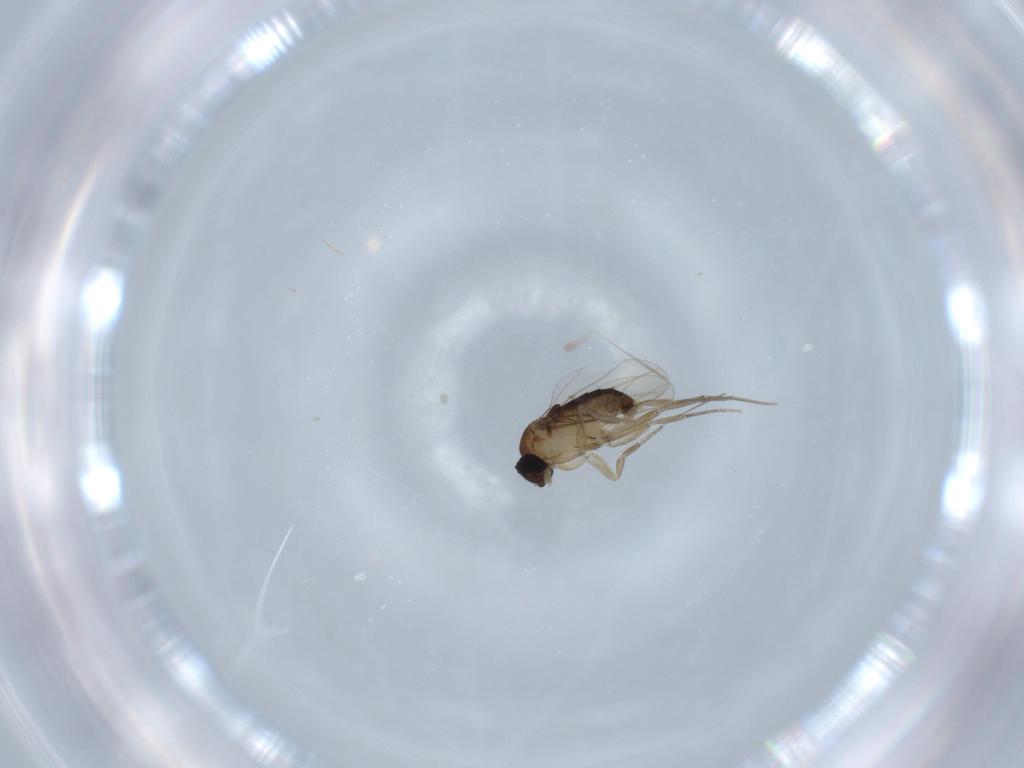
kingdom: Animalia
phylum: Arthropoda
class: Insecta
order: Diptera
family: Phoridae
